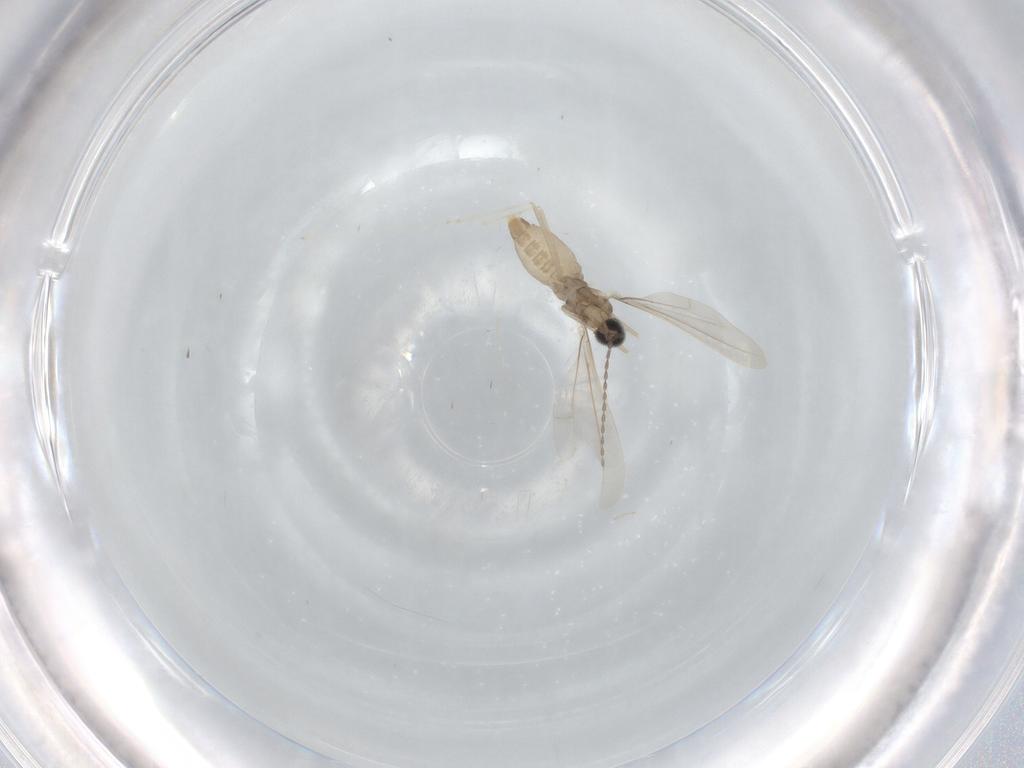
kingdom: Animalia
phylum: Arthropoda
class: Insecta
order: Diptera
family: Cecidomyiidae
